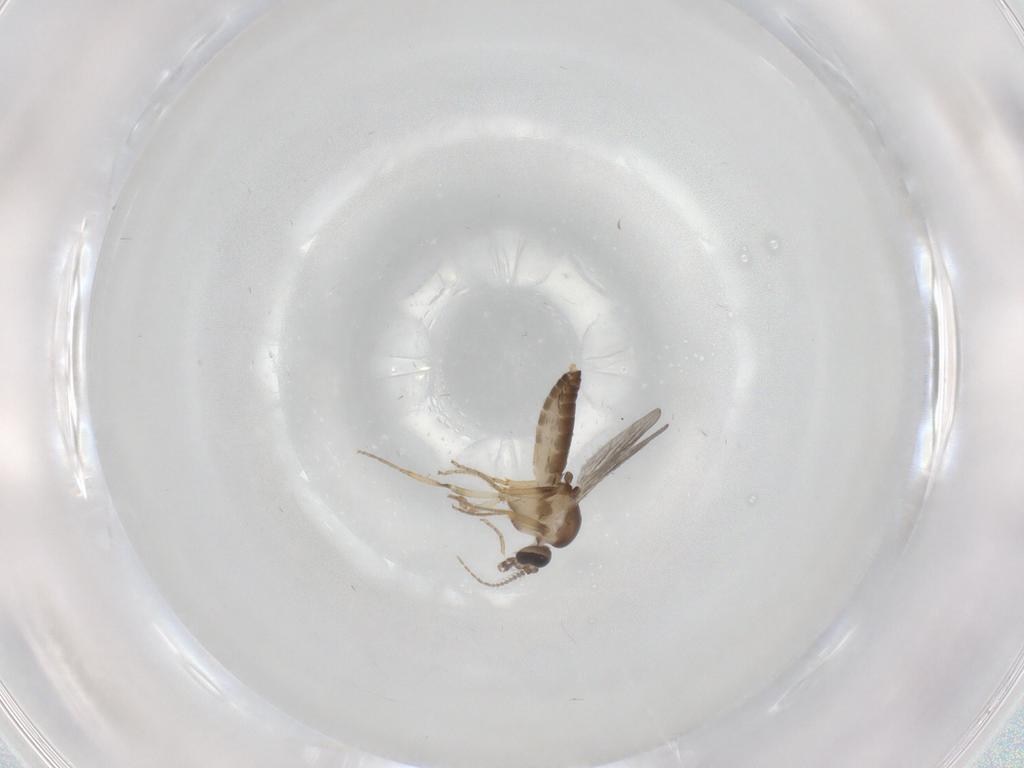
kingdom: Animalia
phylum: Arthropoda
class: Insecta
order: Diptera
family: Ceratopogonidae
